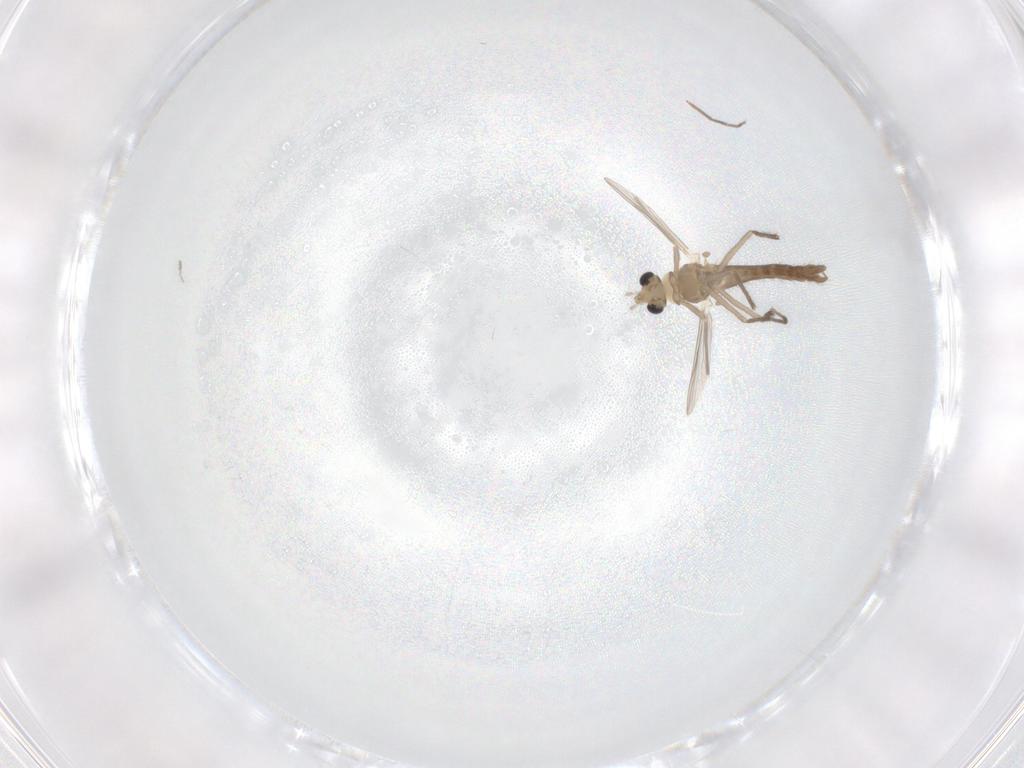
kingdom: Animalia
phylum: Arthropoda
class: Insecta
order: Diptera
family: Chironomidae
